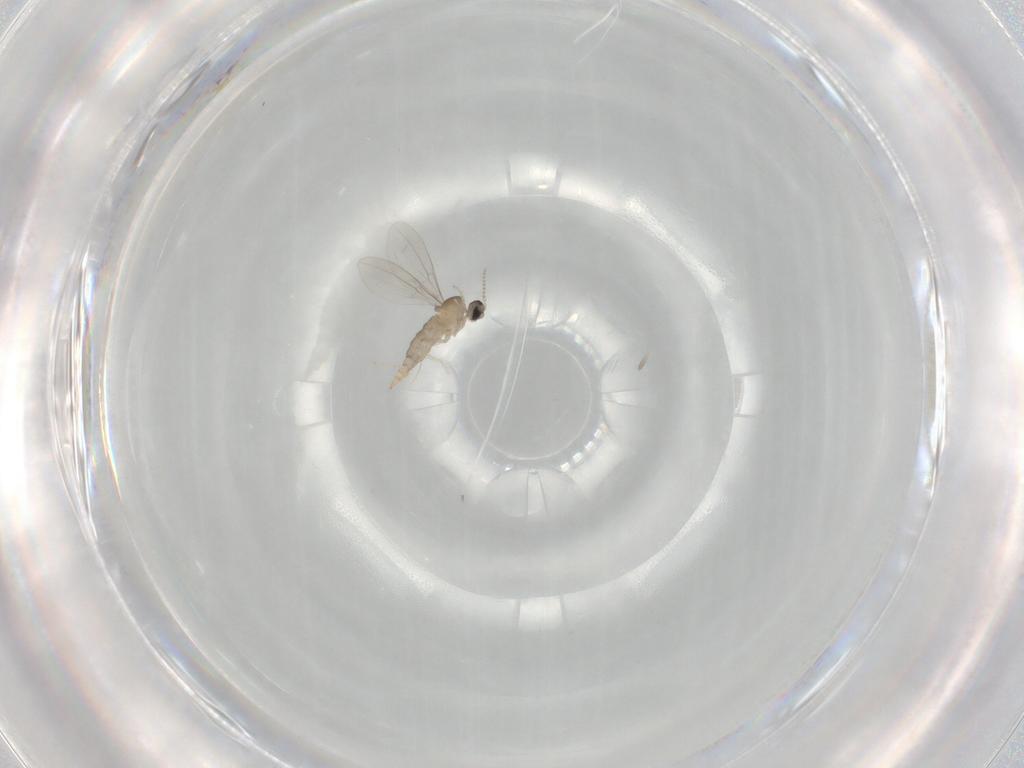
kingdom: Animalia
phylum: Arthropoda
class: Insecta
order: Diptera
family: Cecidomyiidae
